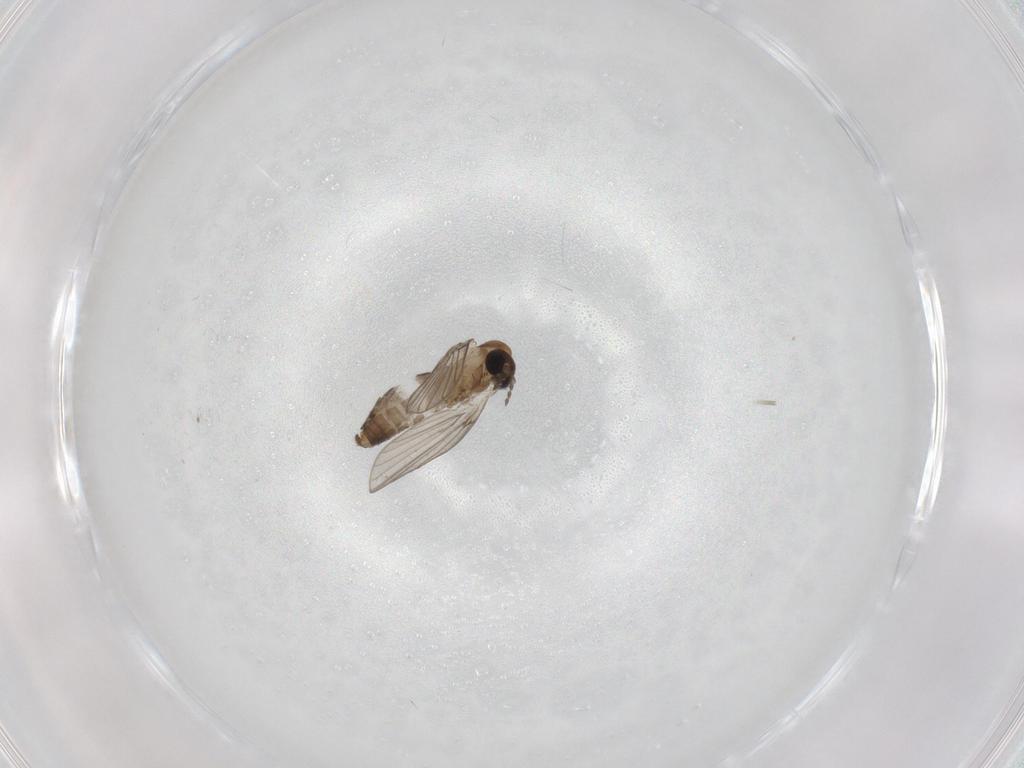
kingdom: Animalia
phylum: Arthropoda
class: Insecta
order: Diptera
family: Psychodidae
